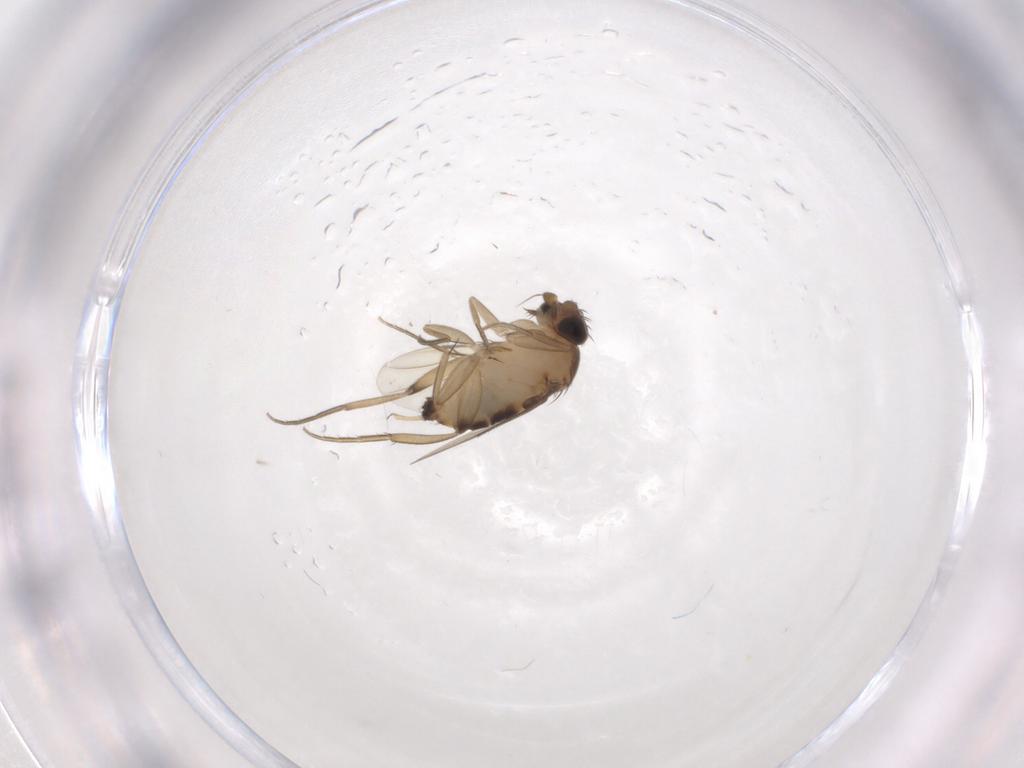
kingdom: Animalia
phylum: Arthropoda
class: Insecta
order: Diptera
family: Phoridae
